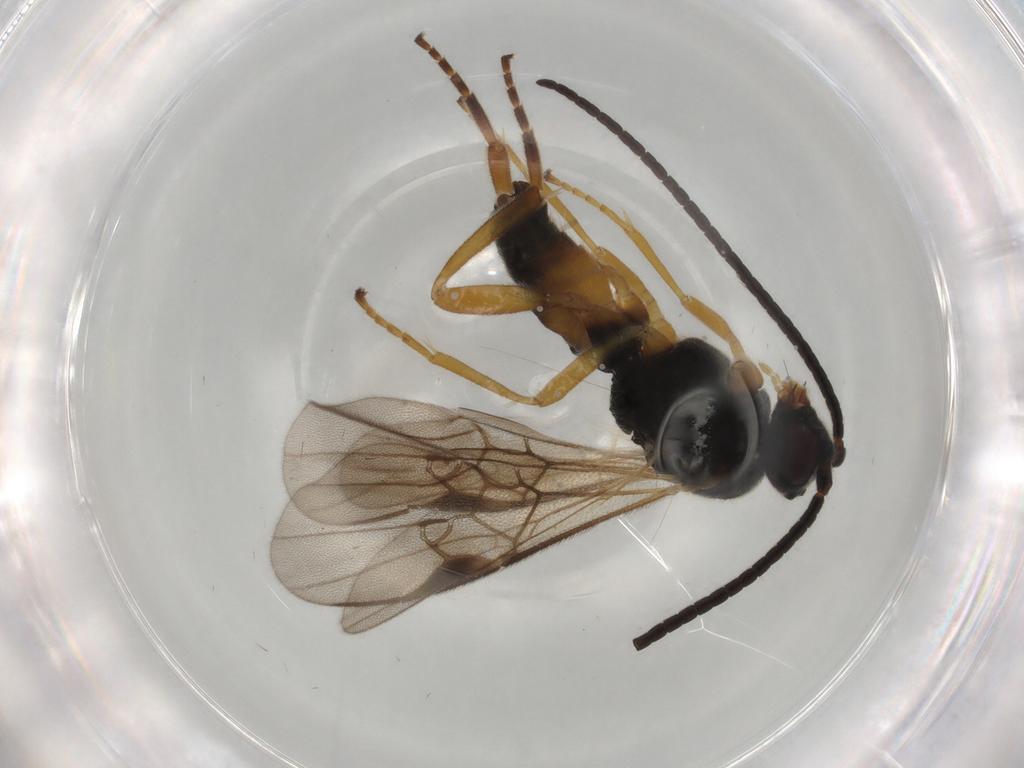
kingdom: Animalia
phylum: Arthropoda
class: Insecta
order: Hymenoptera
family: Braconidae
